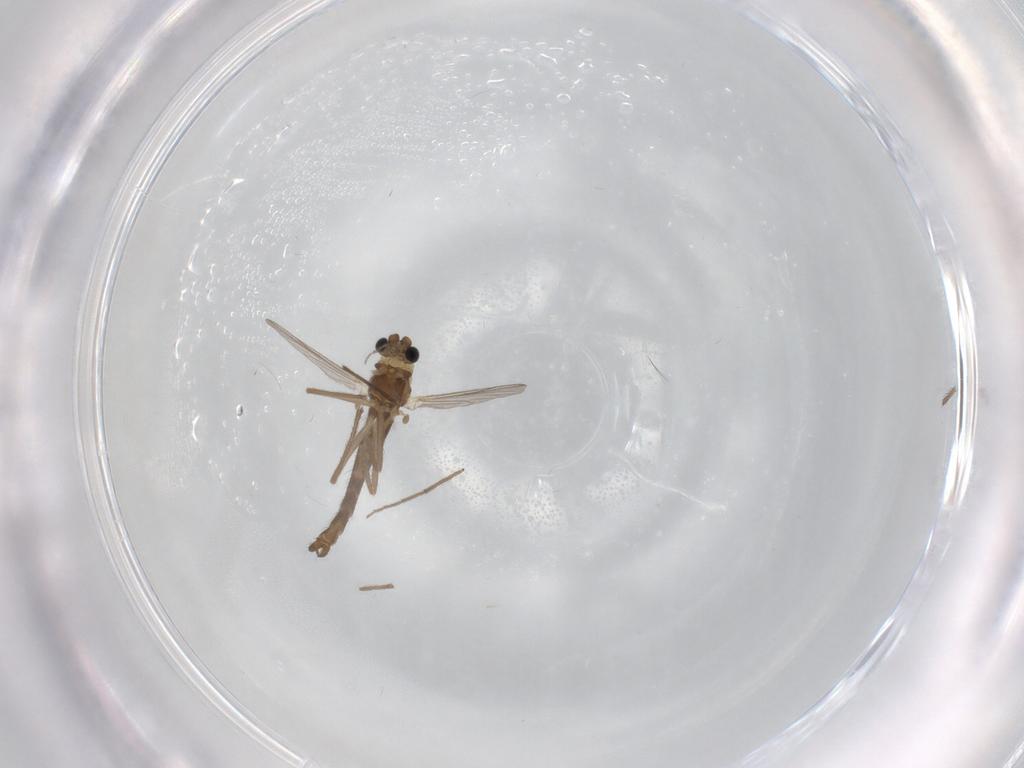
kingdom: Animalia
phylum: Arthropoda
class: Insecta
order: Diptera
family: Chironomidae
